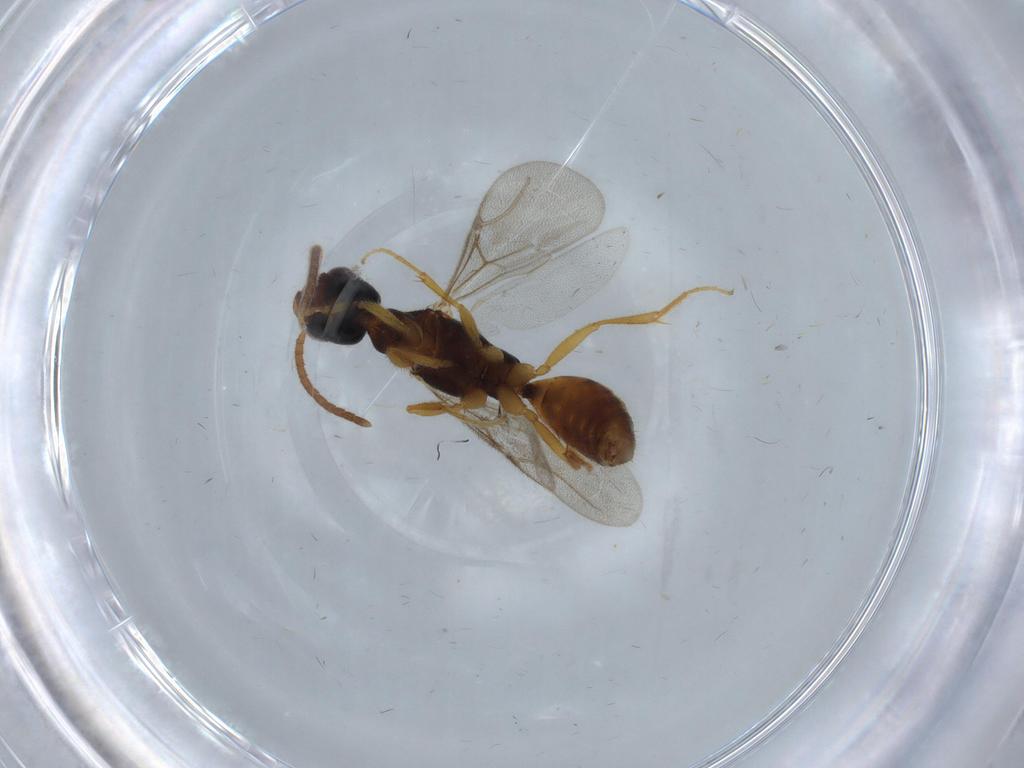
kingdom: Animalia
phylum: Arthropoda
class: Insecta
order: Hymenoptera
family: Bethylidae
